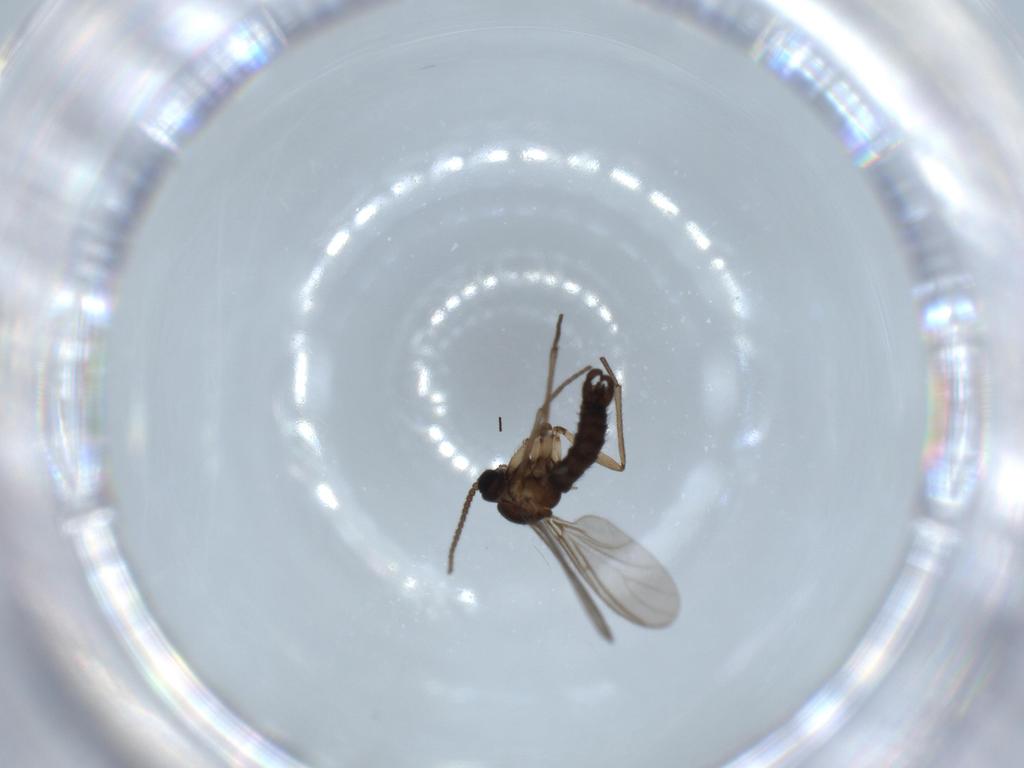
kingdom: Animalia
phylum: Arthropoda
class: Insecta
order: Diptera
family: Sciaridae
